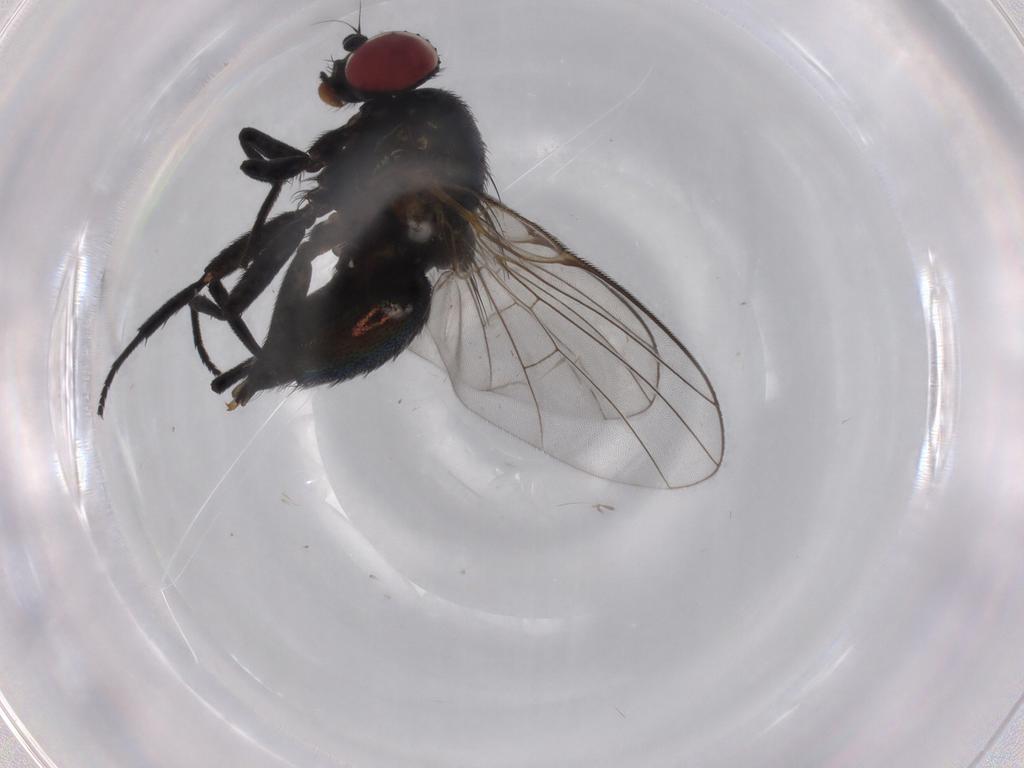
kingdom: Animalia
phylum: Arthropoda
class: Insecta
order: Diptera
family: Agromyzidae
